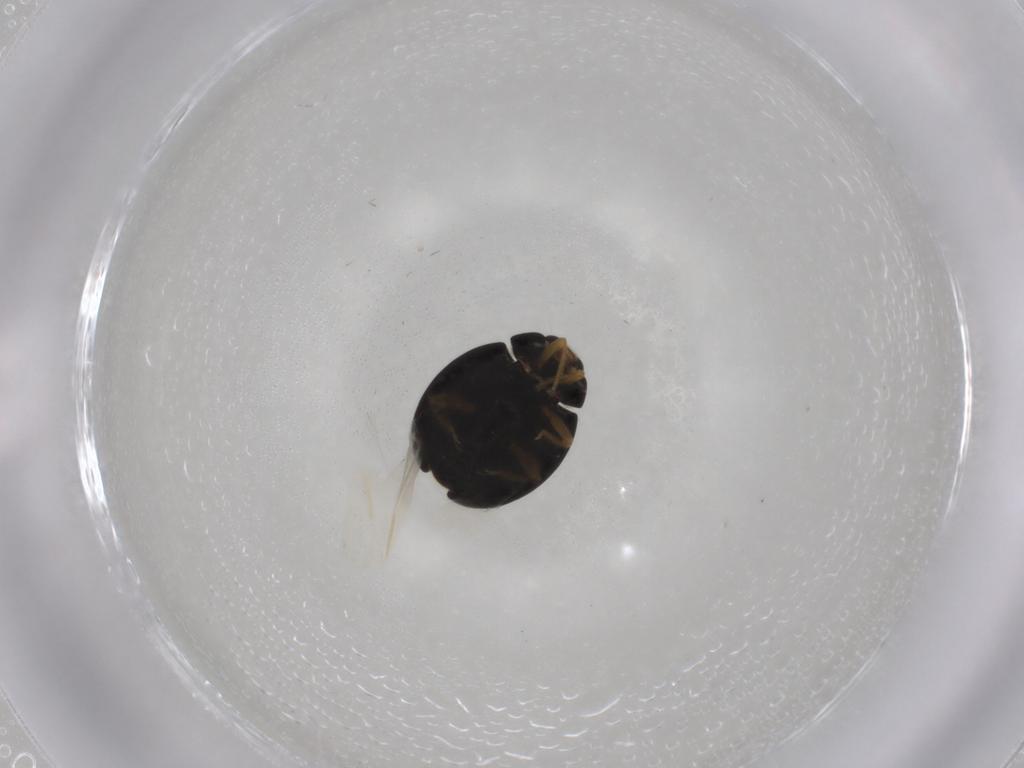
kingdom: Animalia
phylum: Arthropoda
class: Insecta
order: Coleoptera
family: Coccinellidae
